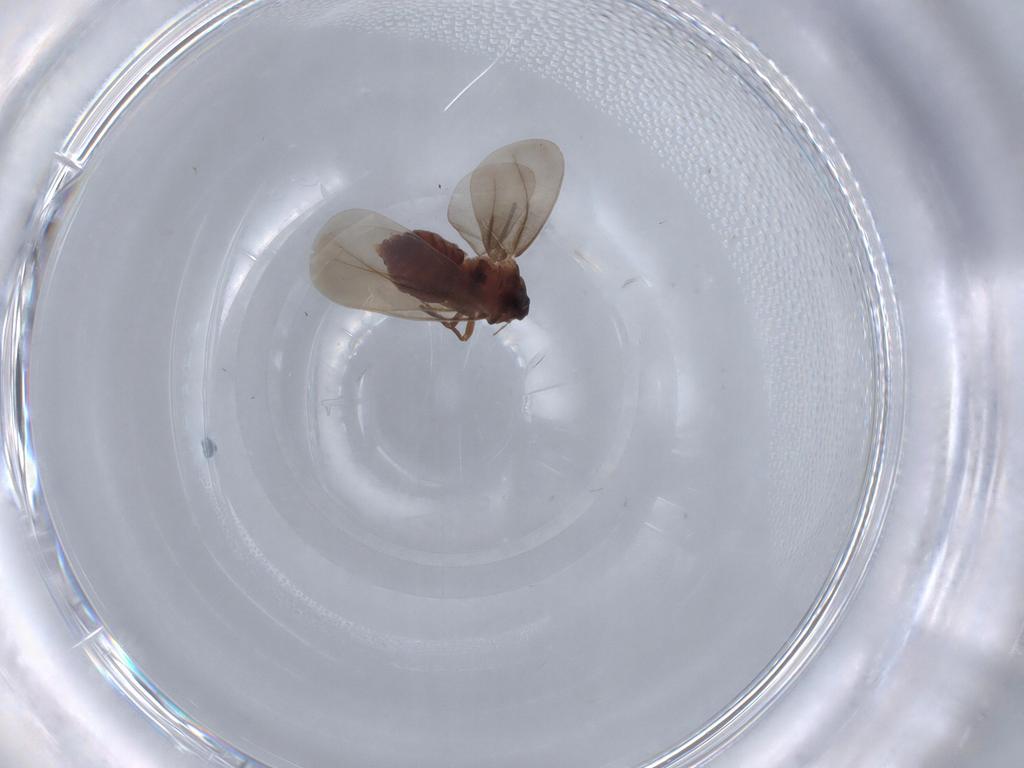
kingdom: Animalia
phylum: Arthropoda
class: Insecta
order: Hemiptera
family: Aleyrodidae
